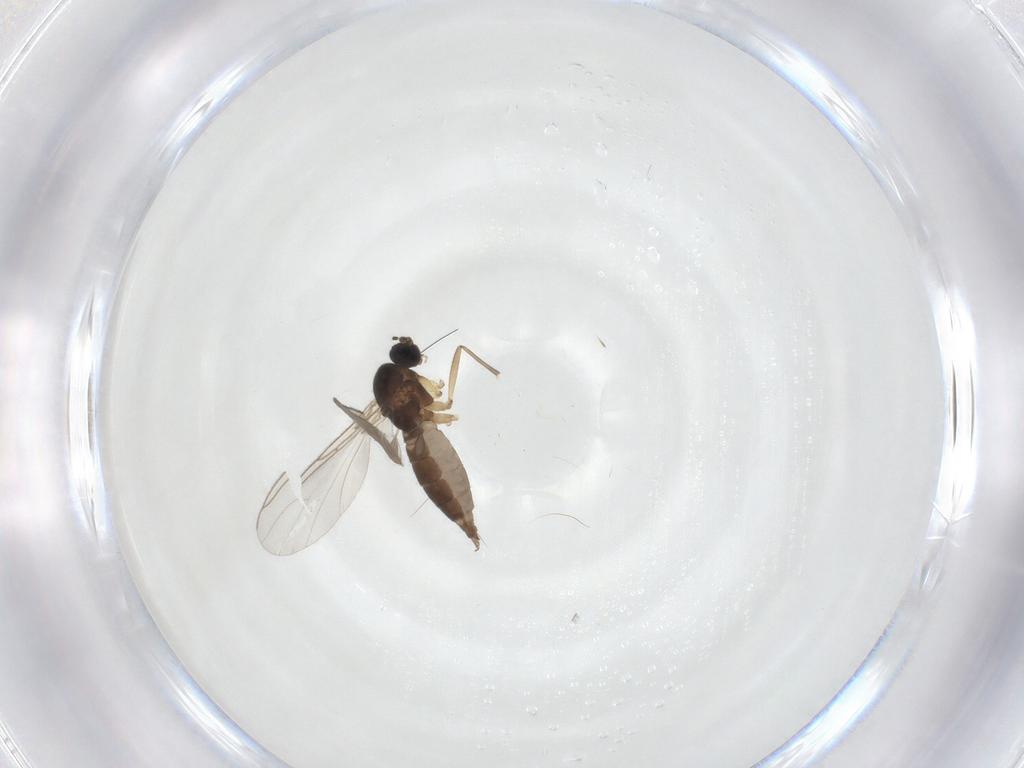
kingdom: Animalia
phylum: Arthropoda
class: Insecta
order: Diptera
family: Sciaridae
